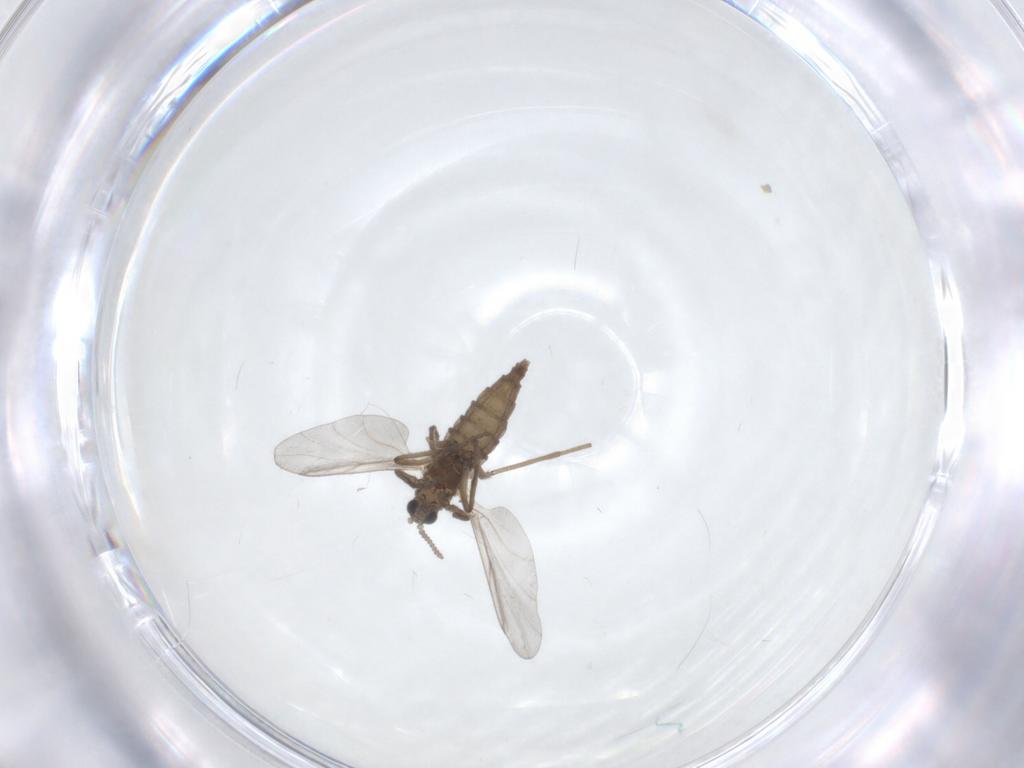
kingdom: Animalia
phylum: Arthropoda
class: Insecta
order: Diptera
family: Cecidomyiidae
